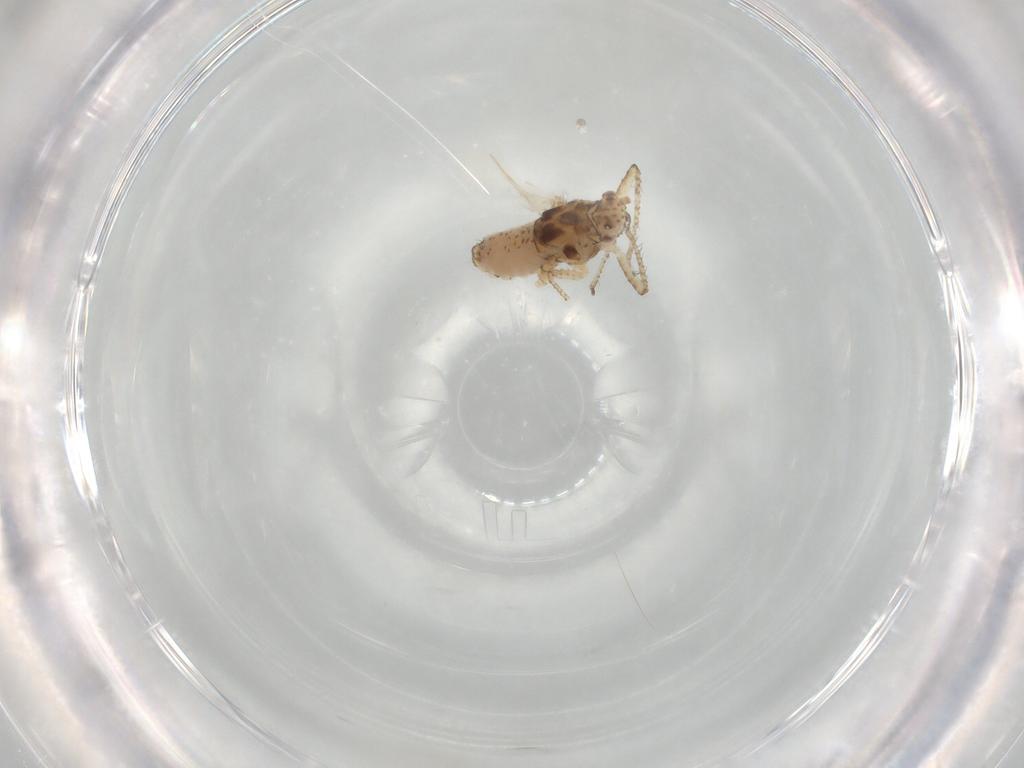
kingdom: Animalia
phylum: Arthropoda
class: Insecta
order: Hemiptera
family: Aphididae
